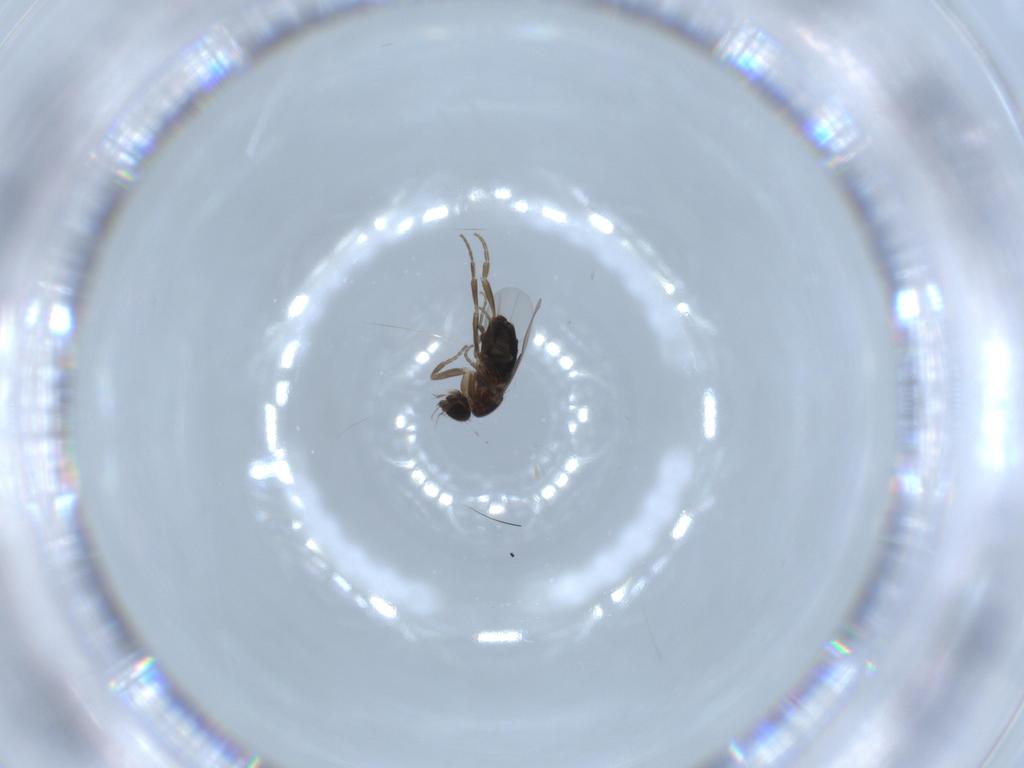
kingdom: Animalia
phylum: Arthropoda
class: Insecta
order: Diptera
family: Phoridae
